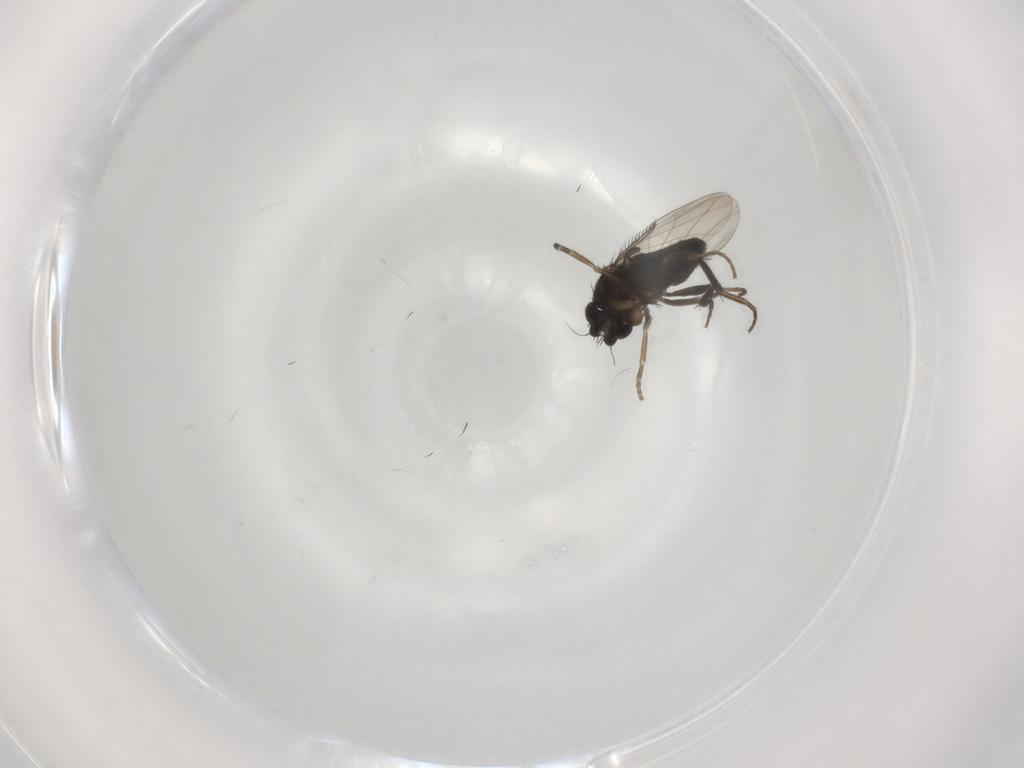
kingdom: Animalia
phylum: Arthropoda
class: Insecta
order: Diptera
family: Phoridae
